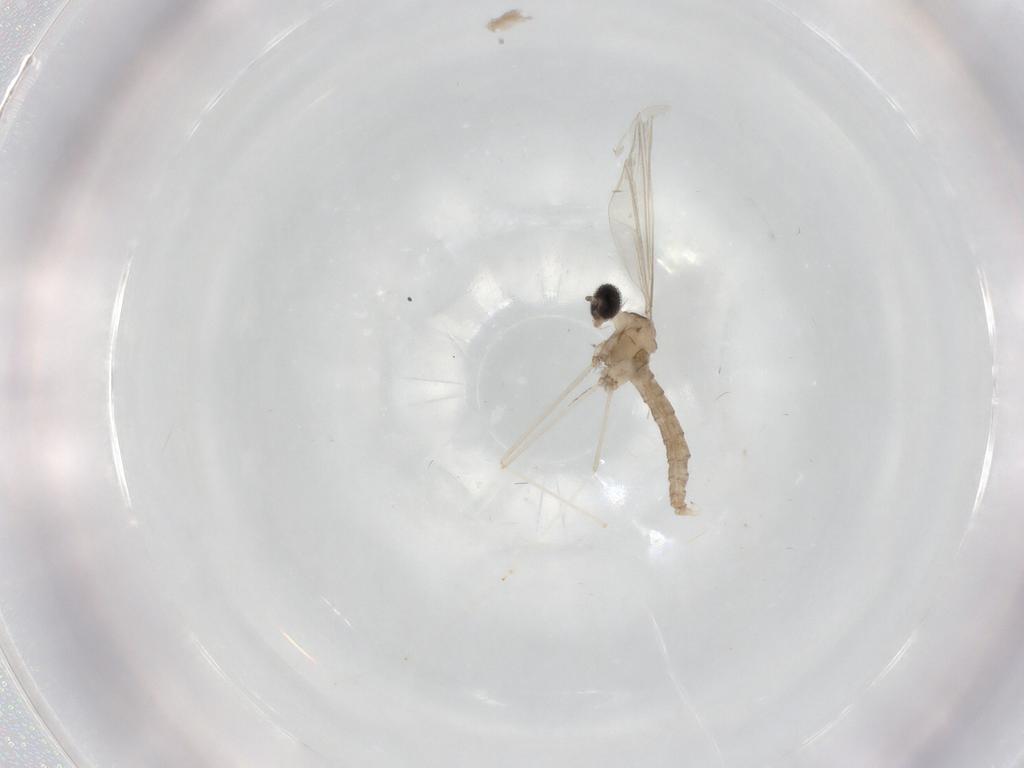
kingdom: Animalia
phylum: Arthropoda
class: Insecta
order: Diptera
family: Cecidomyiidae
